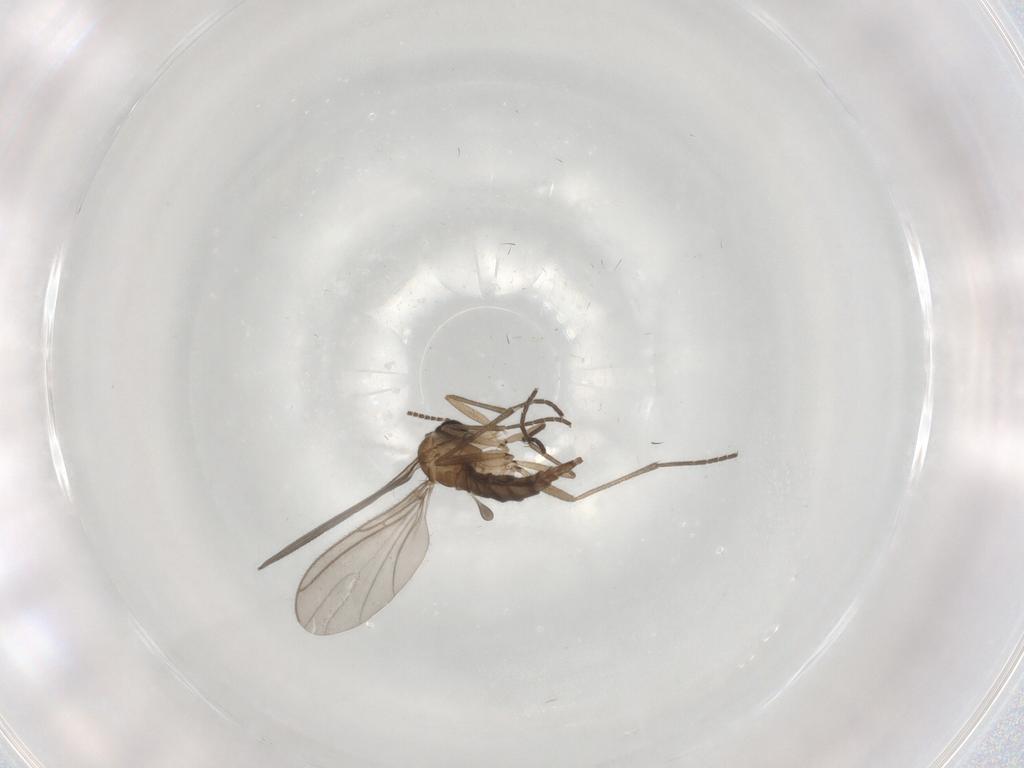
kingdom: Animalia
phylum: Arthropoda
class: Insecta
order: Diptera
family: Sciaridae
